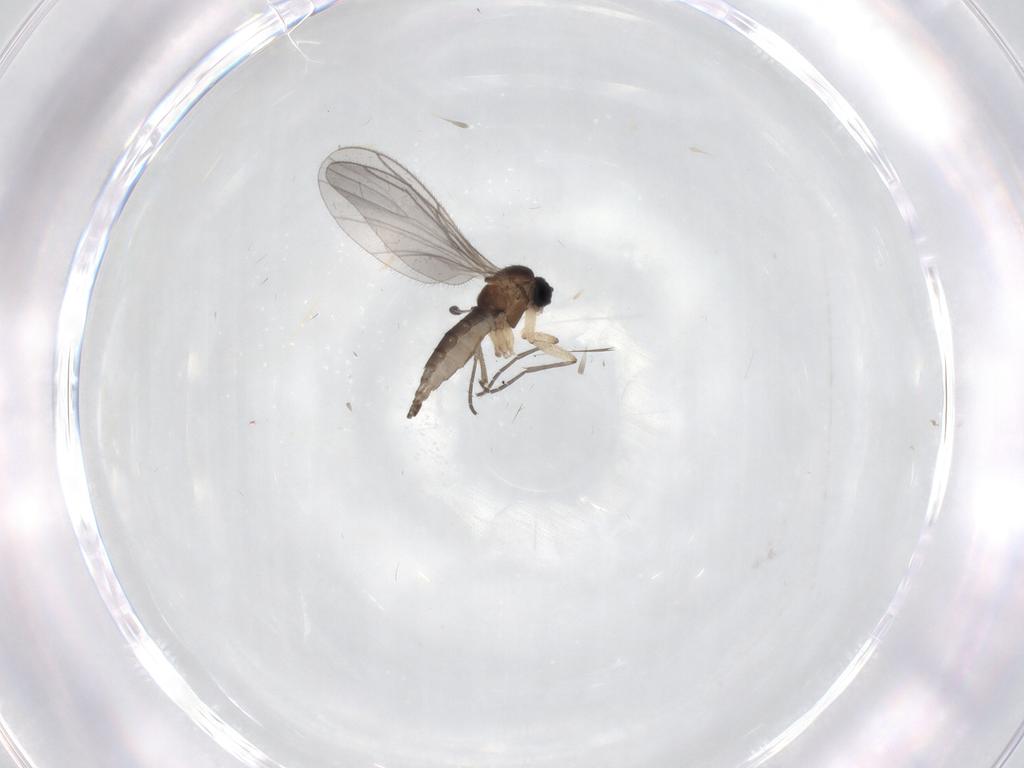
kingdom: Animalia
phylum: Arthropoda
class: Insecta
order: Diptera
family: Sciaridae
